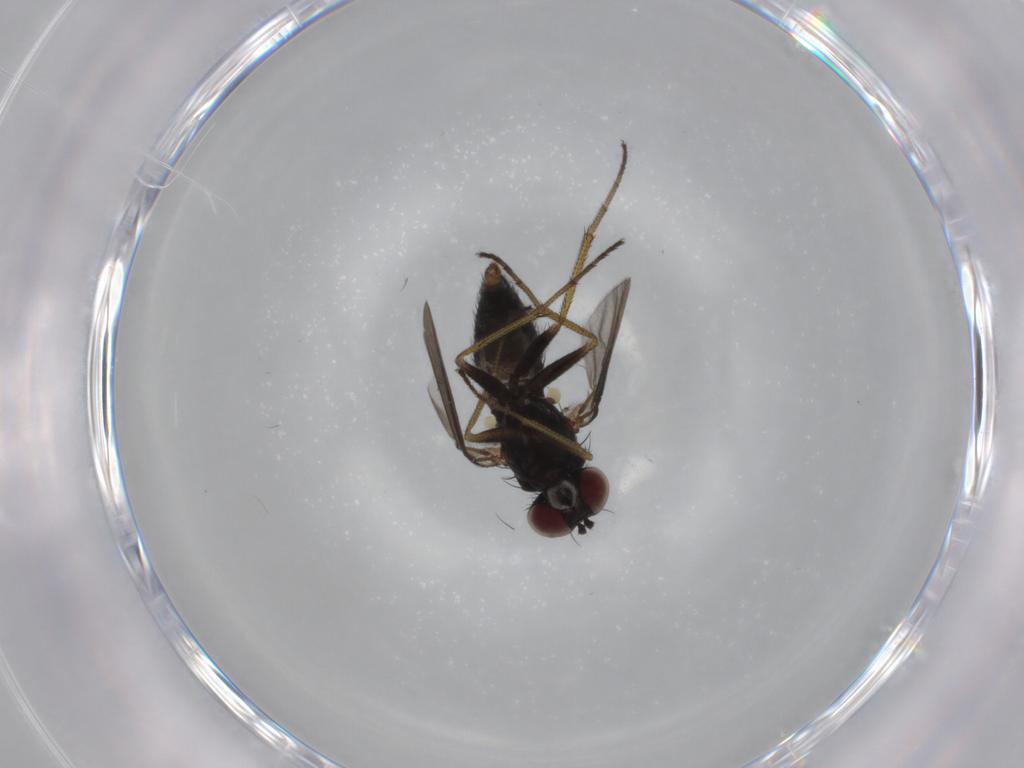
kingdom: Animalia
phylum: Arthropoda
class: Insecta
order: Diptera
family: Dolichopodidae
